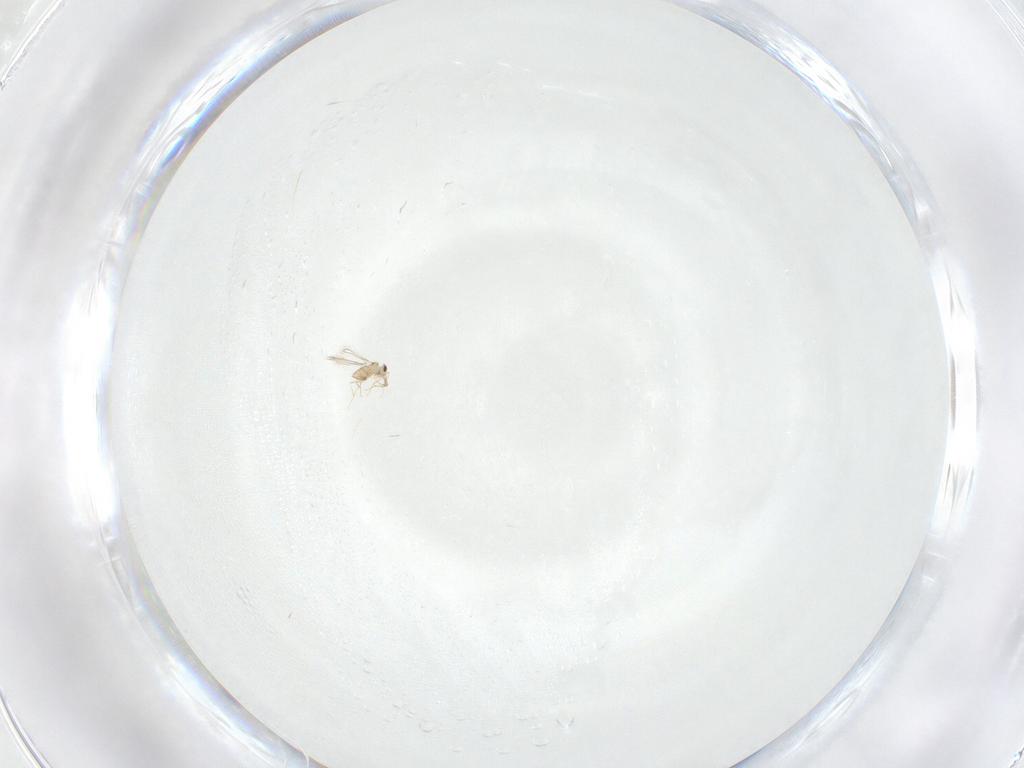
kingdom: Animalia
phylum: Arthropoda
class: Insecta
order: Hymenoptera
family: Mymaridae
